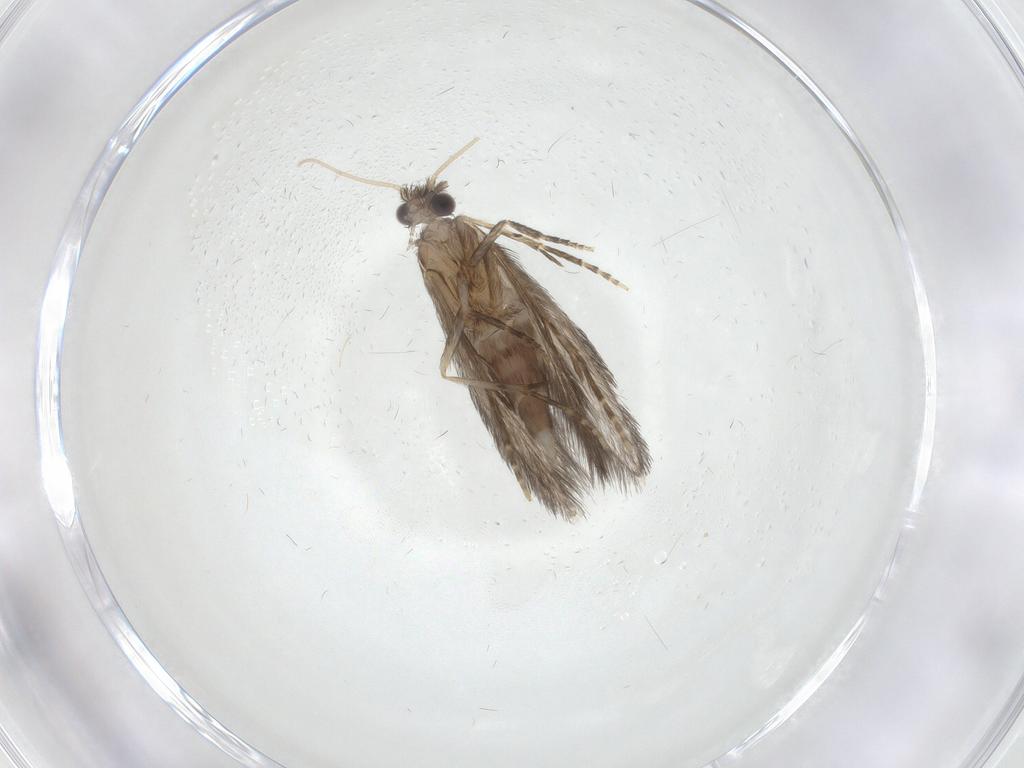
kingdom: Animalia
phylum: Arthropoda
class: Insecta
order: Trichoptera
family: Hydroptilidae
